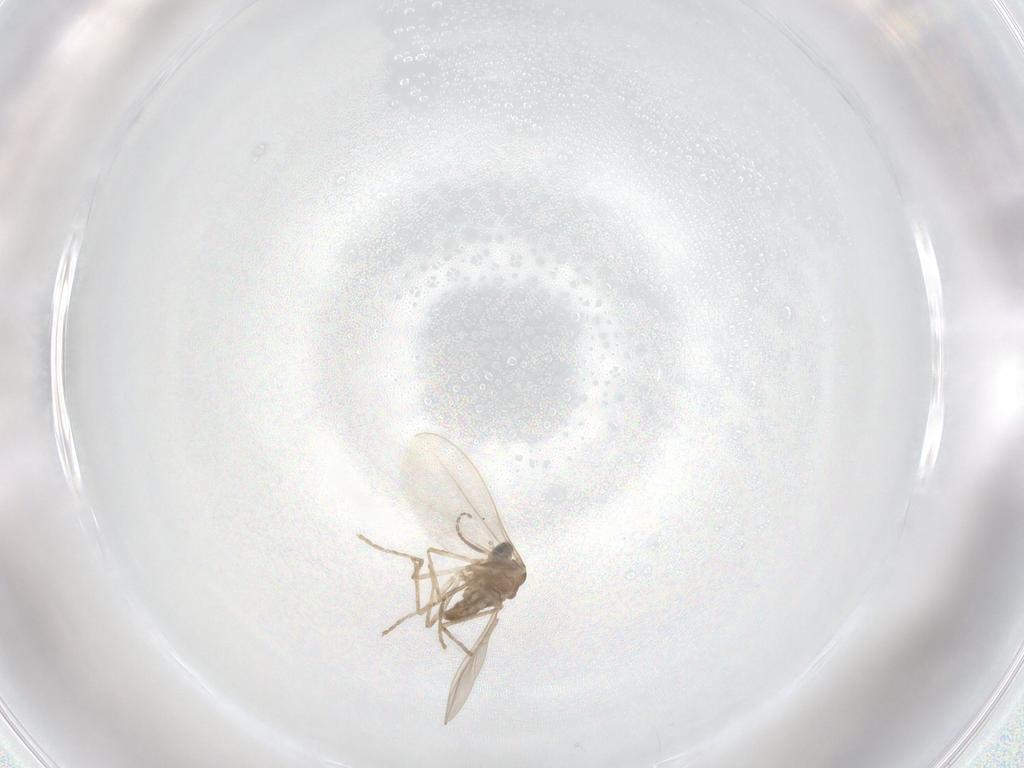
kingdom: Animalia
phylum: Arthropoda
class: Insecta
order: Diptera
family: Cecidomyiidae
